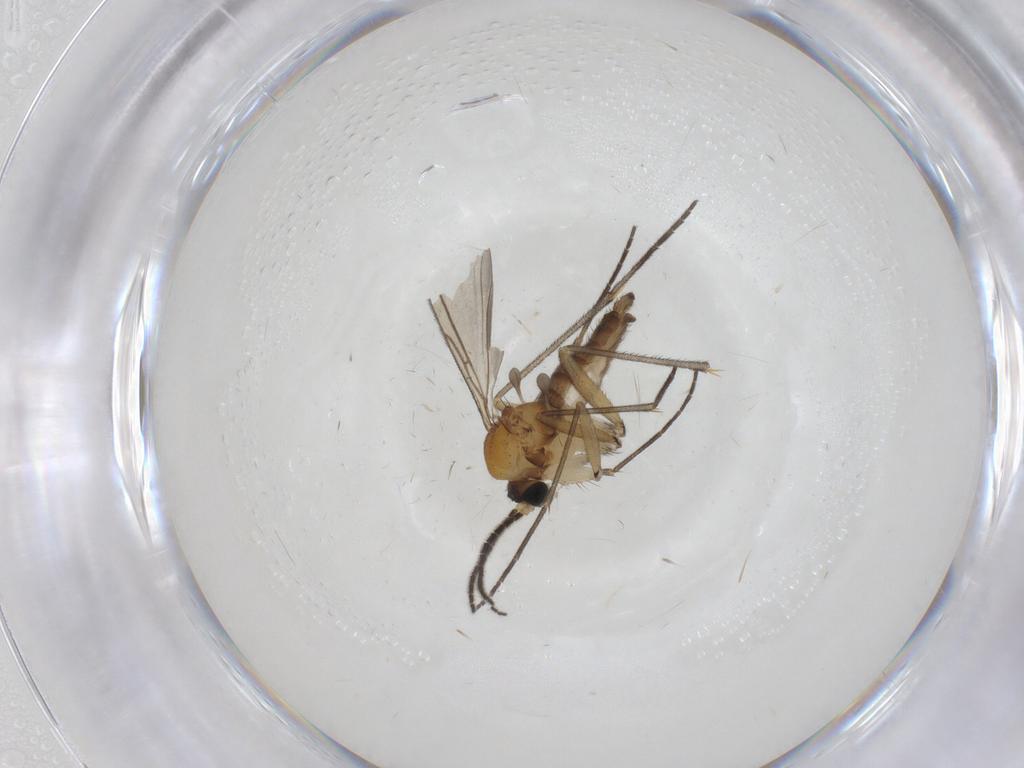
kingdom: Animalia
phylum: Arthropoda
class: Insecta
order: Diptera
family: Sciaridae
